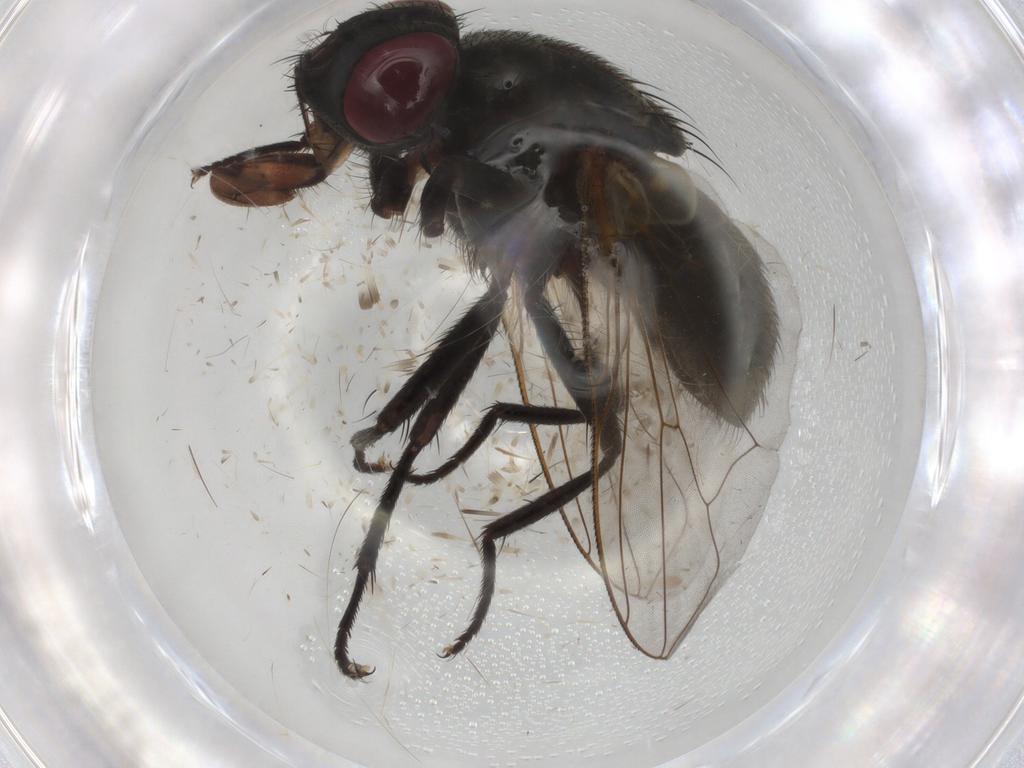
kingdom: Animalia
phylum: Arthropoda
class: Insecta
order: Diptera
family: Muscidae
